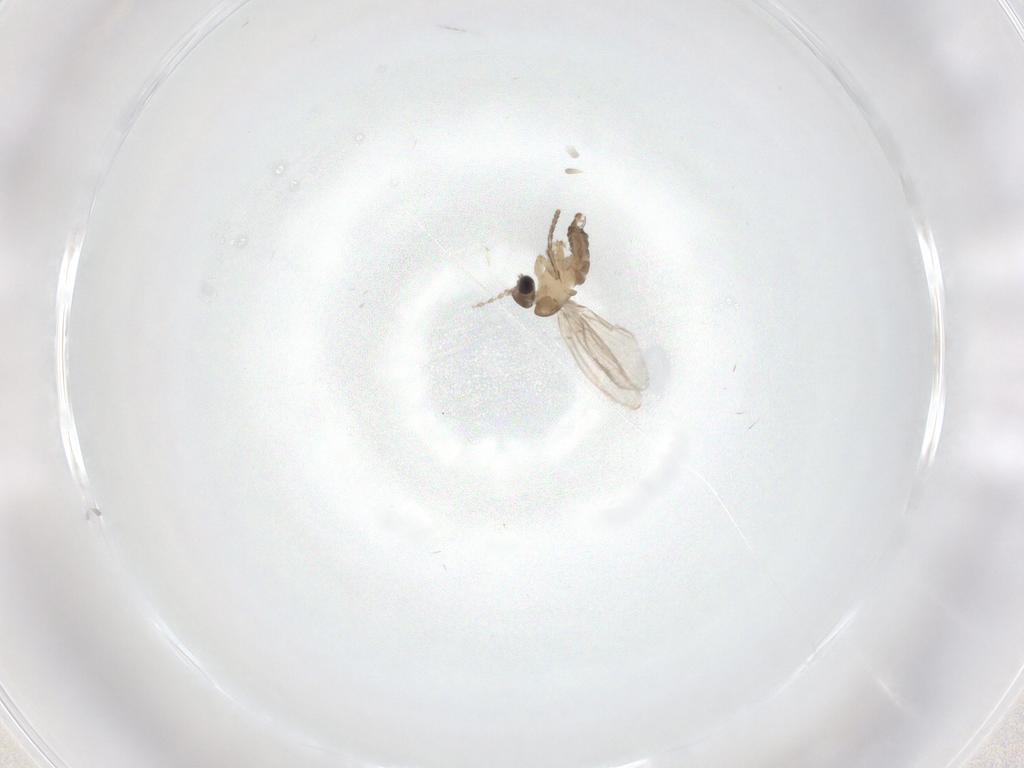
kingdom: Animalia
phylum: Arthropoda
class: Insecta
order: Diptera
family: Psychodidae
